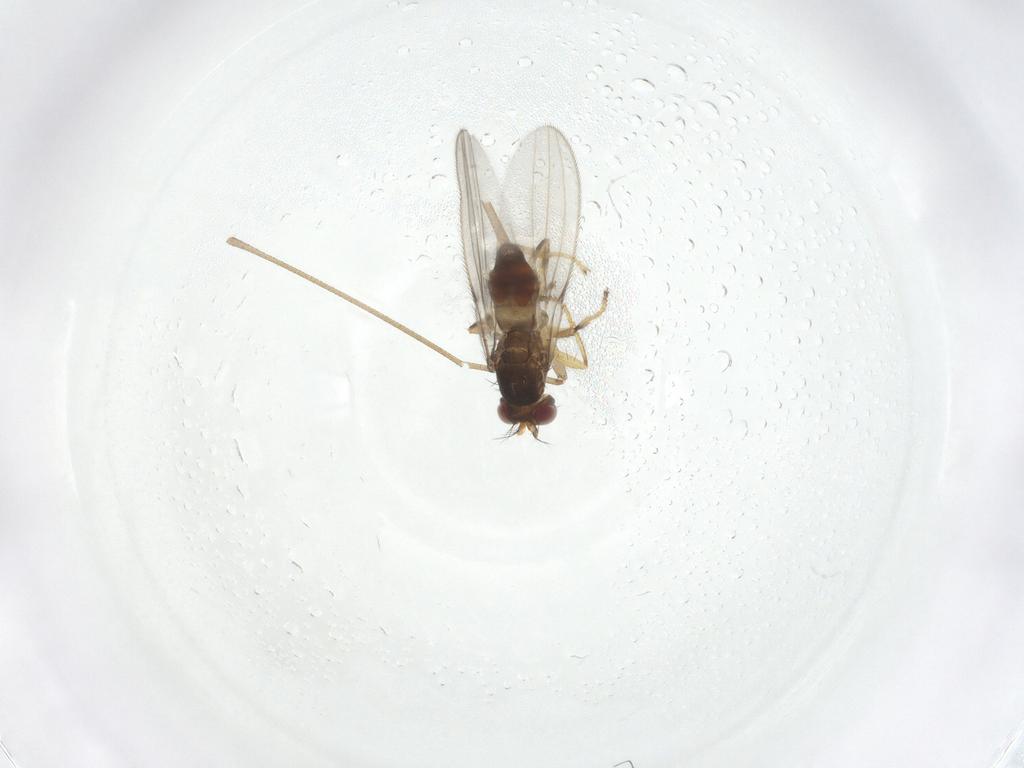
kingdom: Animalia
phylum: Arthropoda
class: Insecta
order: Diptera
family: Periscelididae
